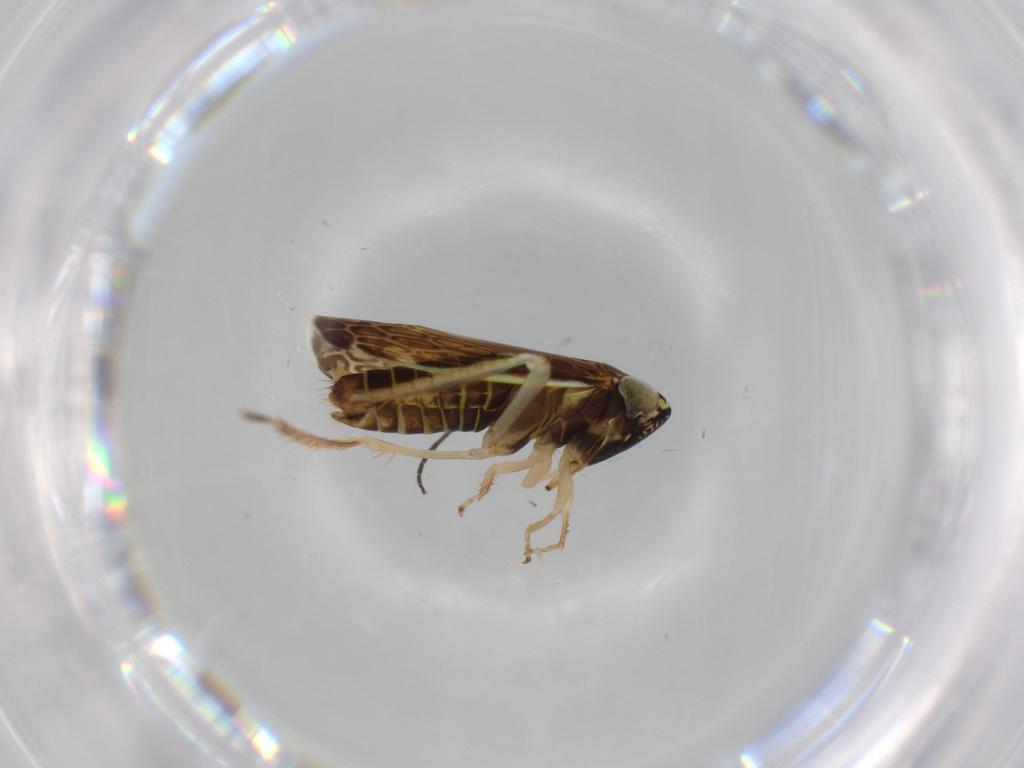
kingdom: Animalia
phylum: Arthropoda
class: Insecta
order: Hemiptera
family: Cicadellidae
